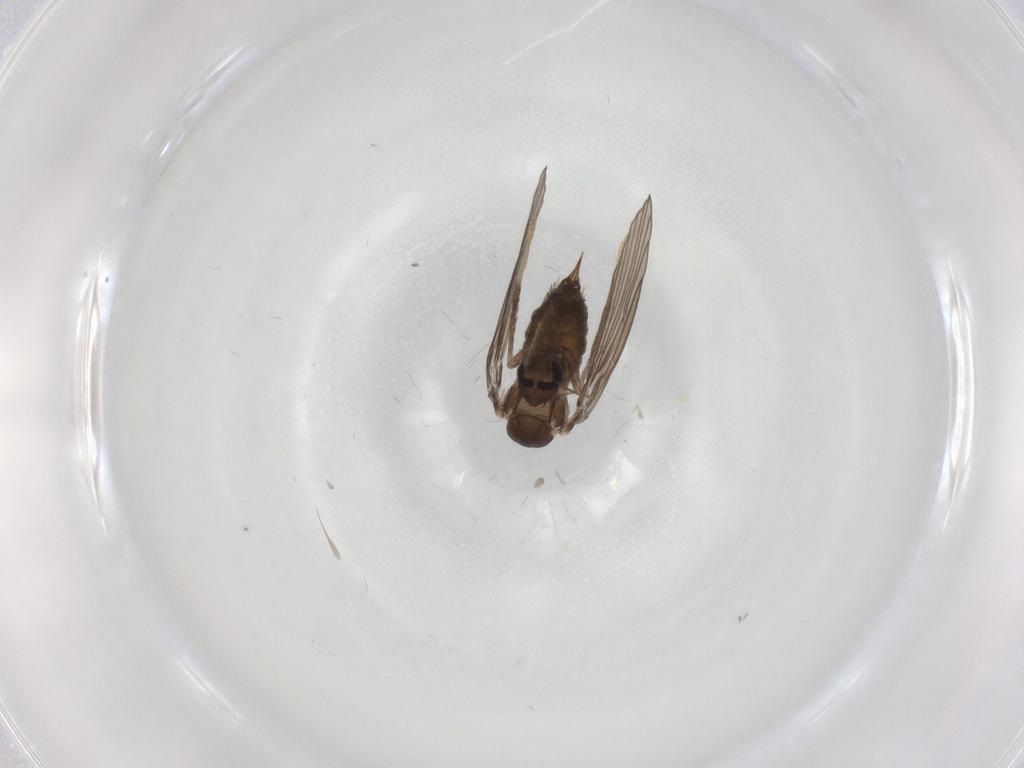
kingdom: Animalia
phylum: Arthropoda
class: Insecta
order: Diptera
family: Psychodidae
